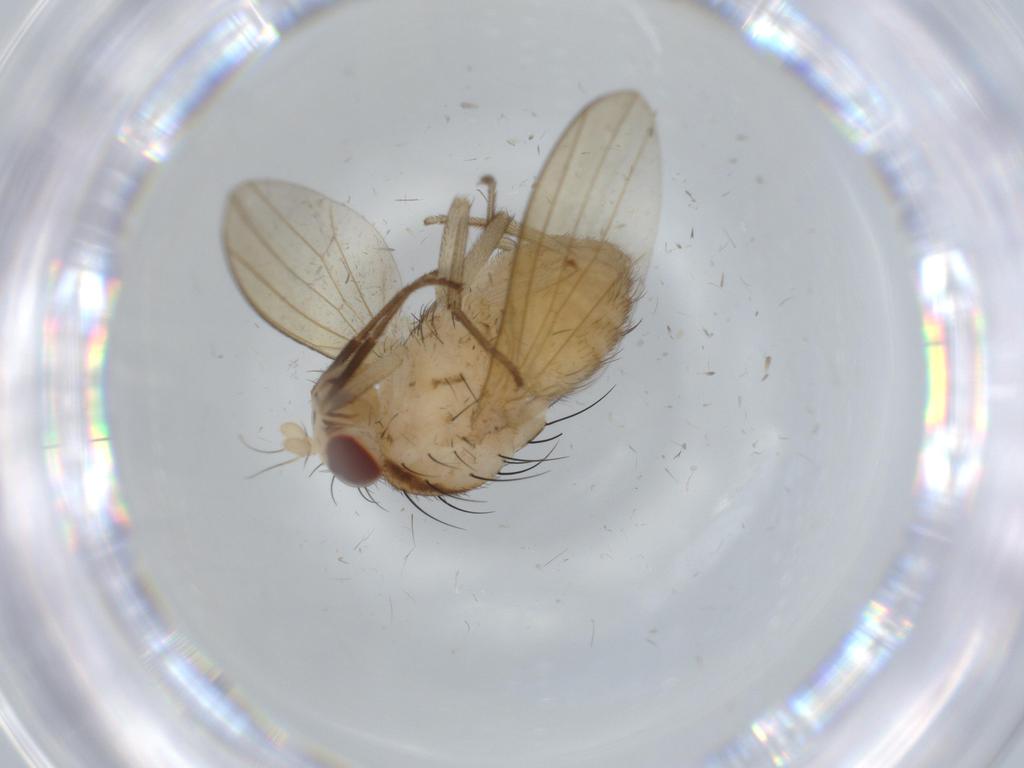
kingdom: Animalia
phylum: Arthropoda
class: Insecta
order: Diptera
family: Lauxaniidae
